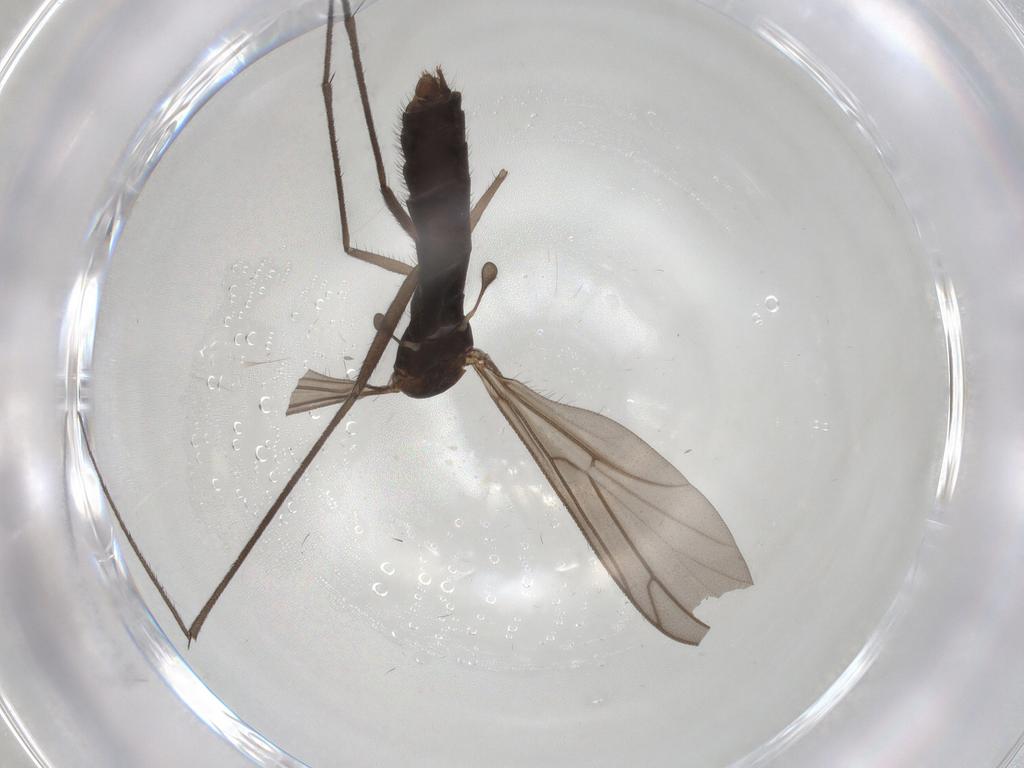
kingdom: Animalia
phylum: Arthropoda
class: Insecta
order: Diptera
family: Keroplatidae
